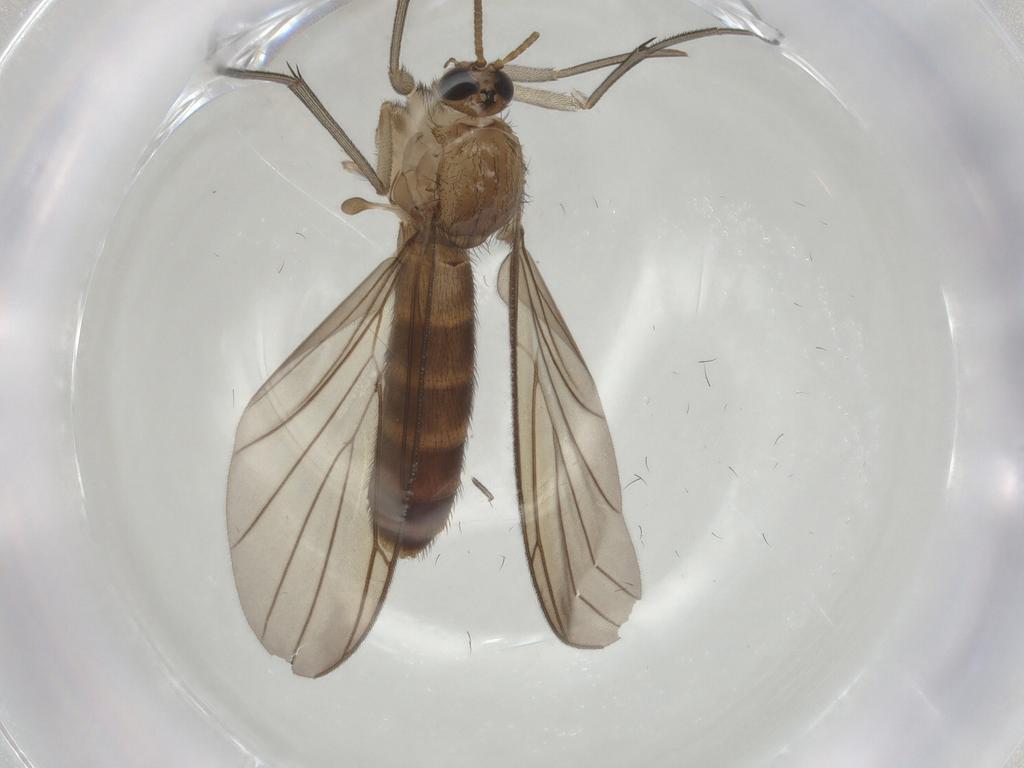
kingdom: Animalia
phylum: Arthropoda
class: Insecta
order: Diptera
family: Keroplatidae
